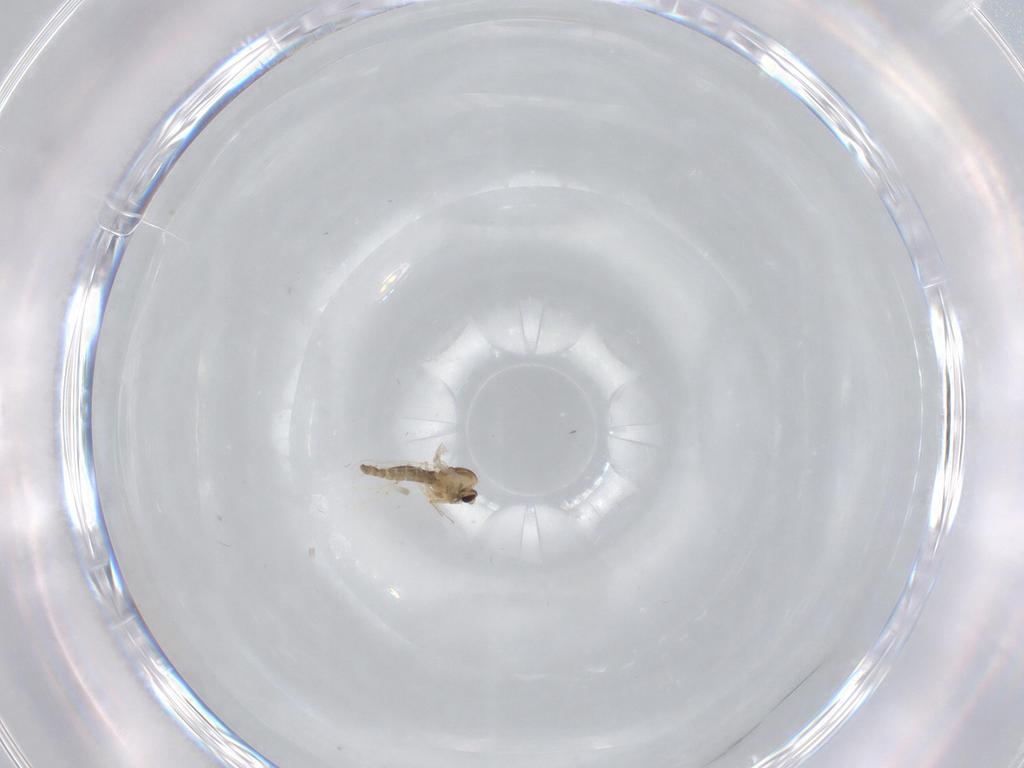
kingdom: Animalia
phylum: Arthropoda
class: Insecta
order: Diptera
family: Chironomidae
